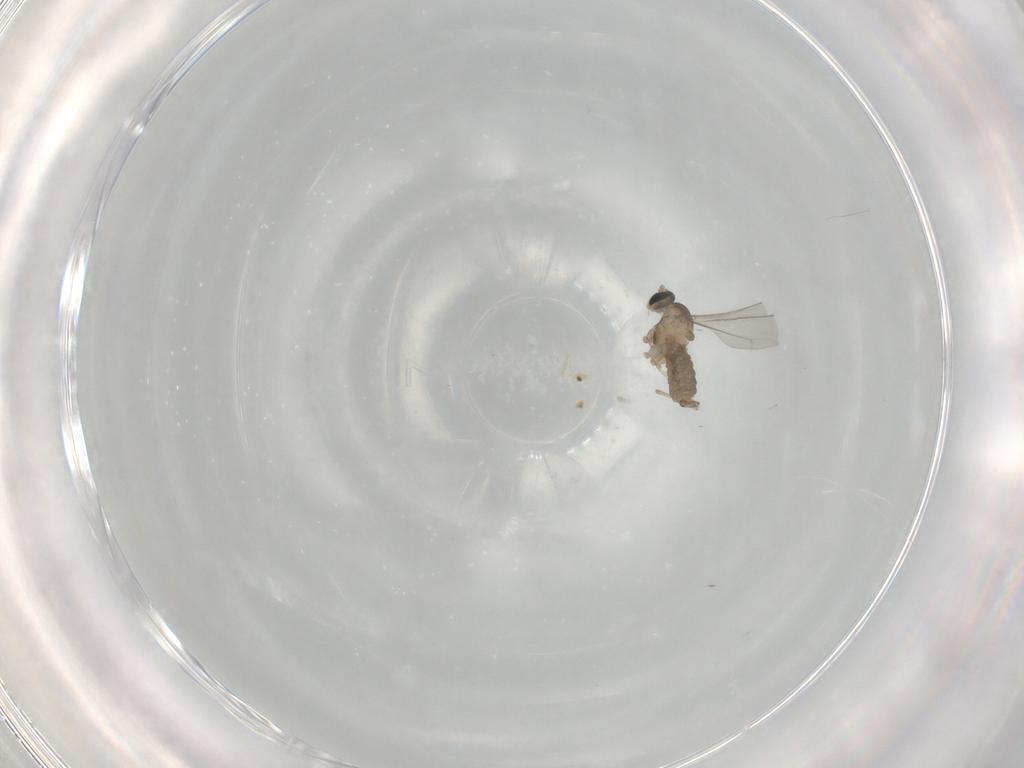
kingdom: Animalia
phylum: Arthropoda
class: Insecta
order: Diptera
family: Cecidomyiidae
